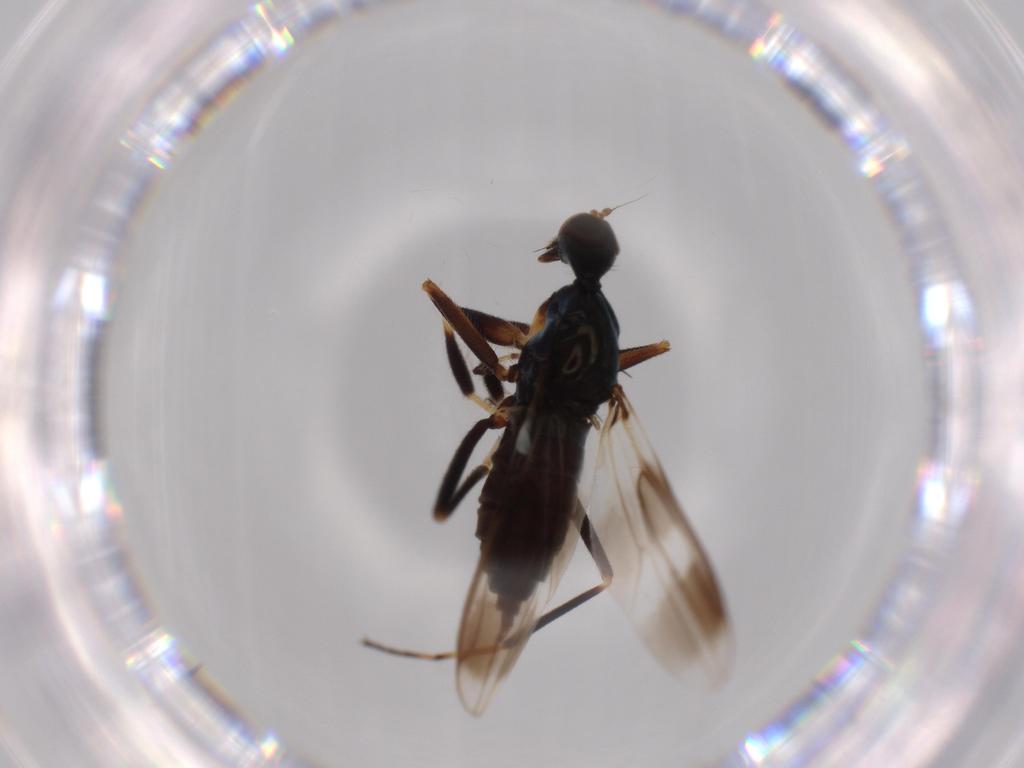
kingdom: Animalia
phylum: Arthropoda
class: Insecta
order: Diptera
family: Hybotidae
